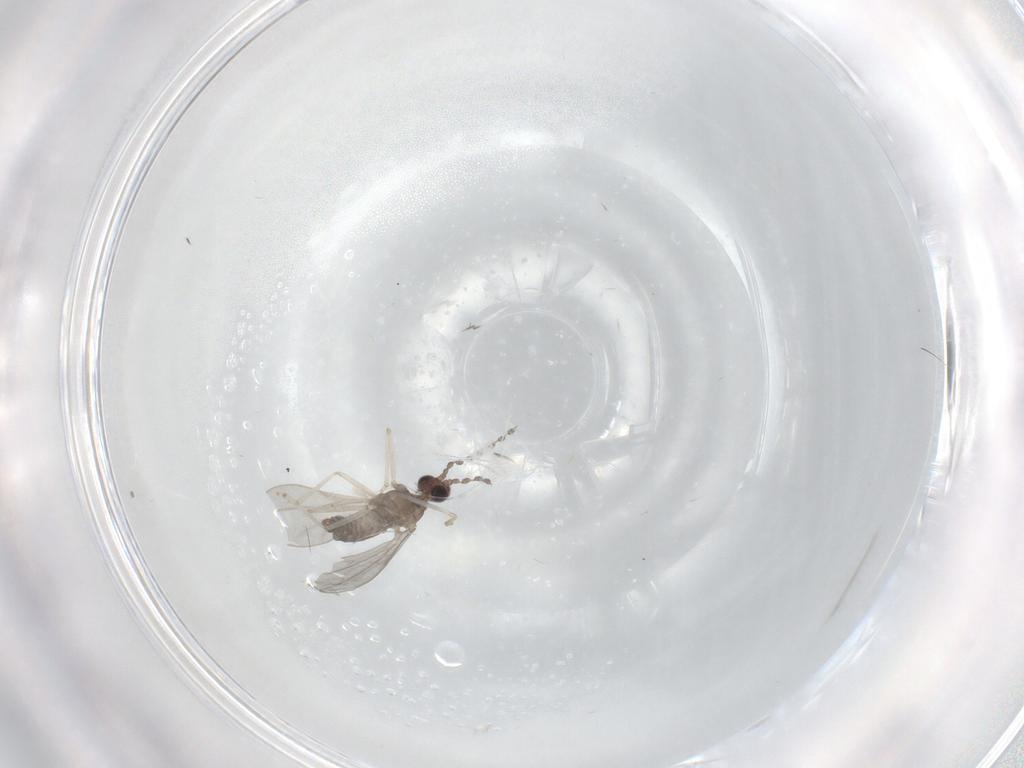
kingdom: Animalia
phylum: Arthropoda
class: Insecta
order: Diptera
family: Cecidomyiidae
